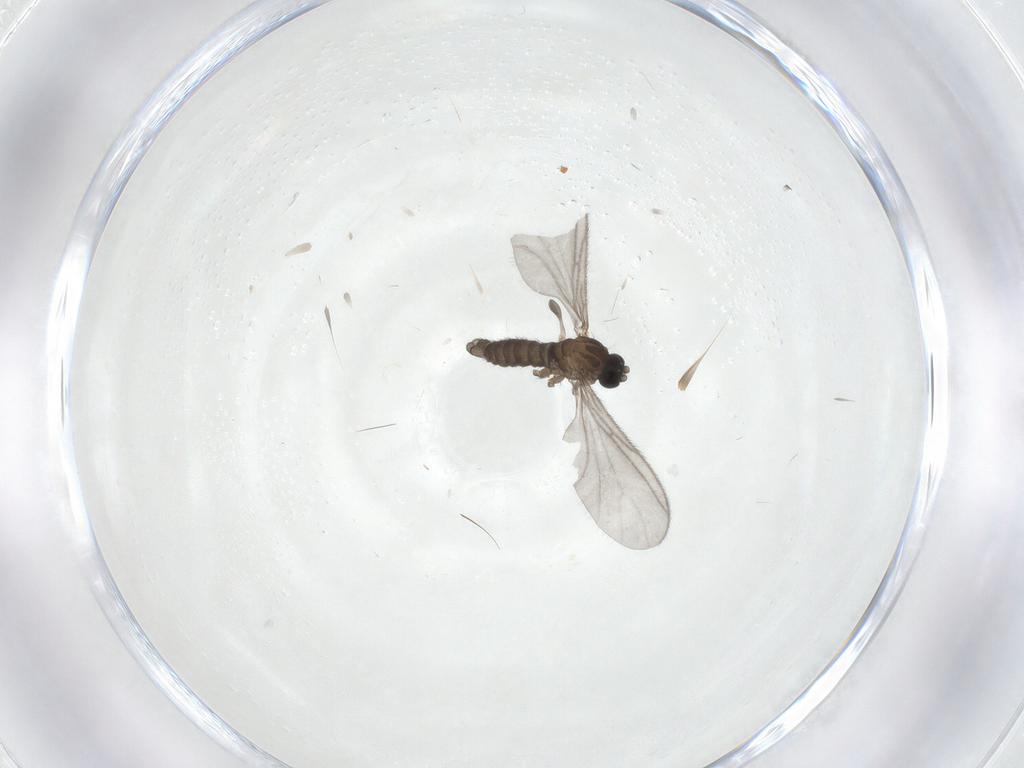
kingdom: Animalia
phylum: Arthropoda
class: Insecta
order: Diptera
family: Sciaridae
